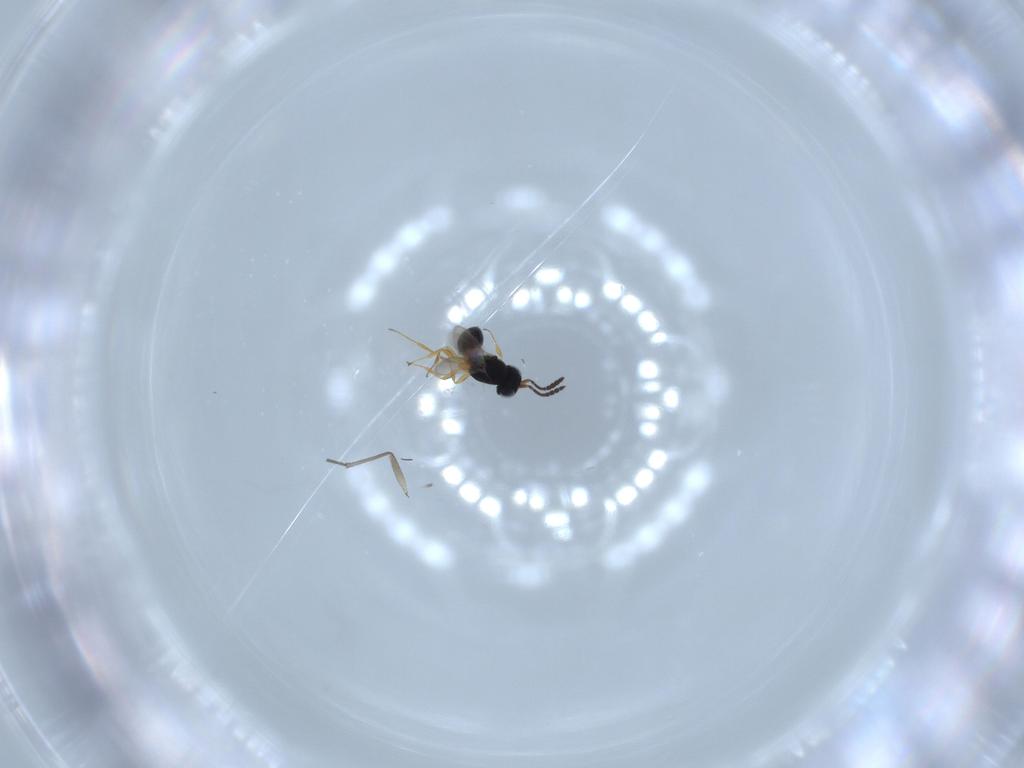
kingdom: Animalia
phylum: Arthropoda
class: Insecta
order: Hymenoptera
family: Scelionidae
